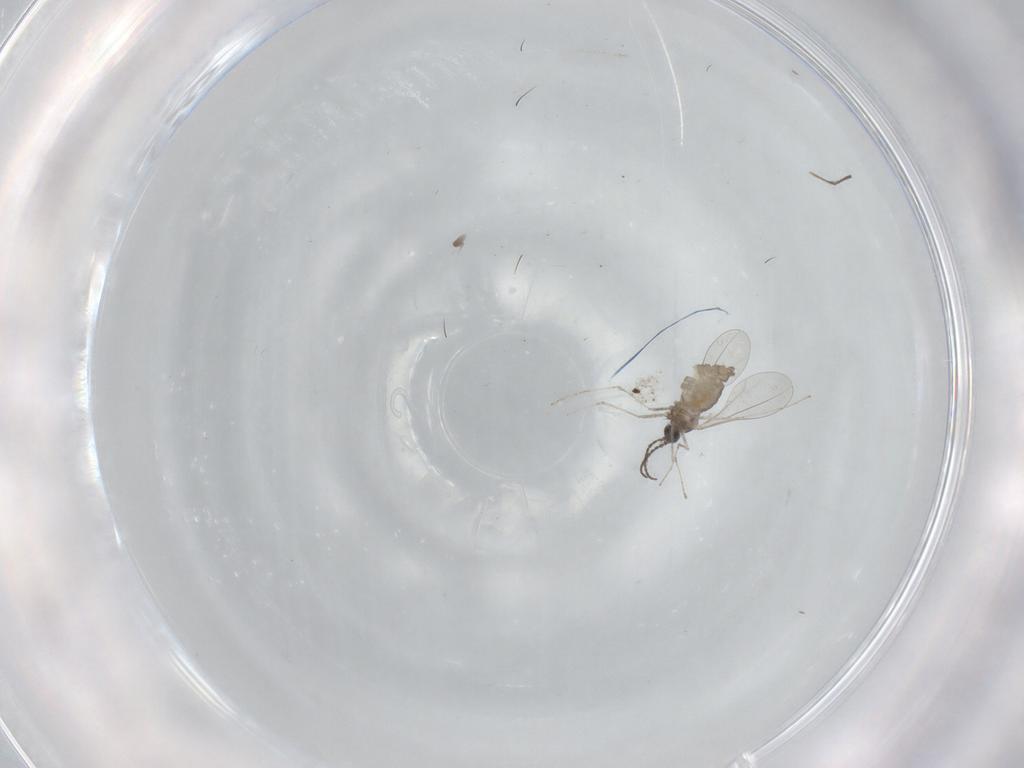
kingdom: Animalia
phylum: Arthropoda
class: Insecta
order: Diptera
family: Cecidomyiidae
